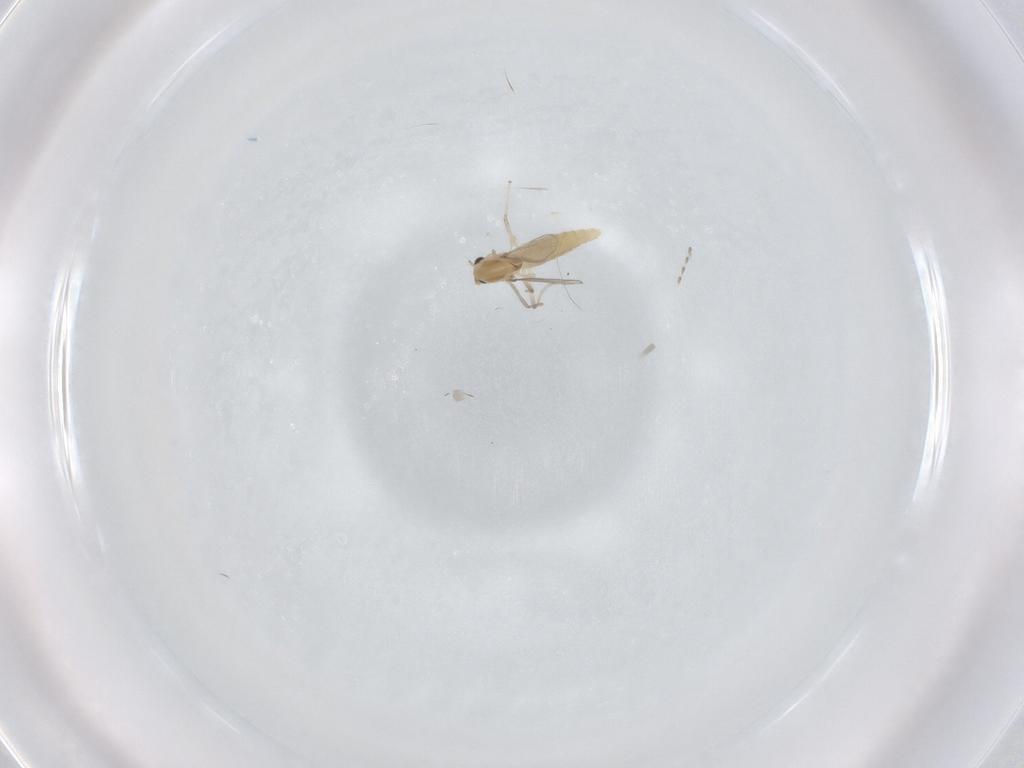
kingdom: Animalia
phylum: Arthropoda
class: Insecta
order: Diptera
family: Chironomidae
